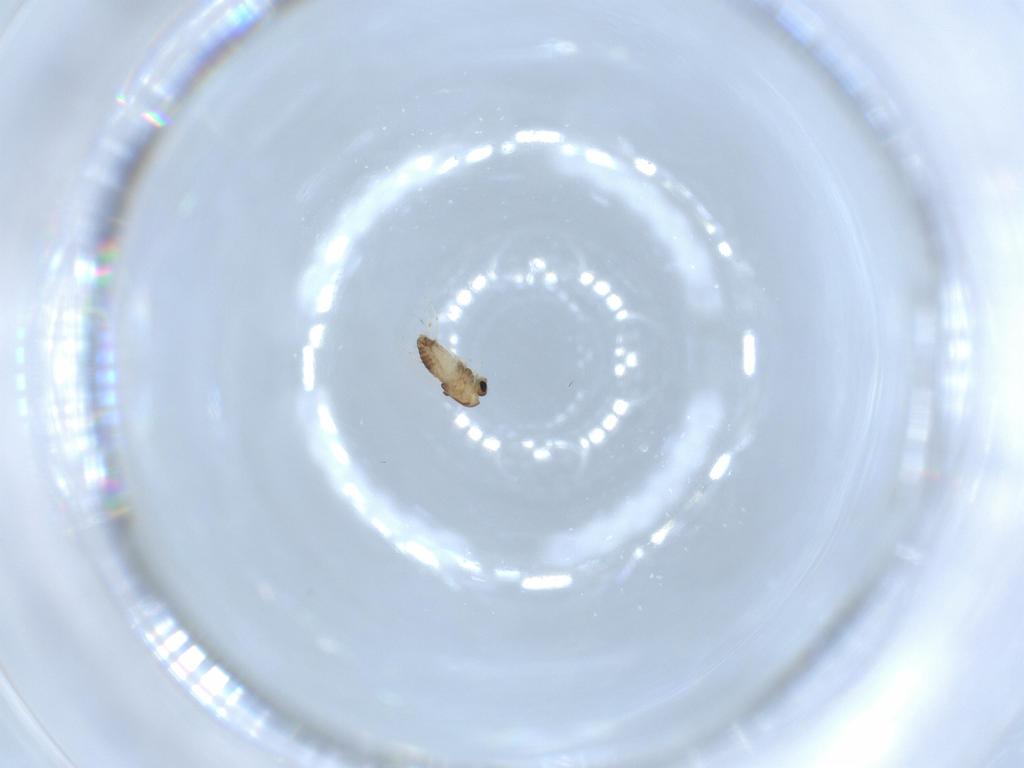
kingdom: Animalia
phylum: Arthropoda
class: Insecta
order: Diptera
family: Chironomidae
